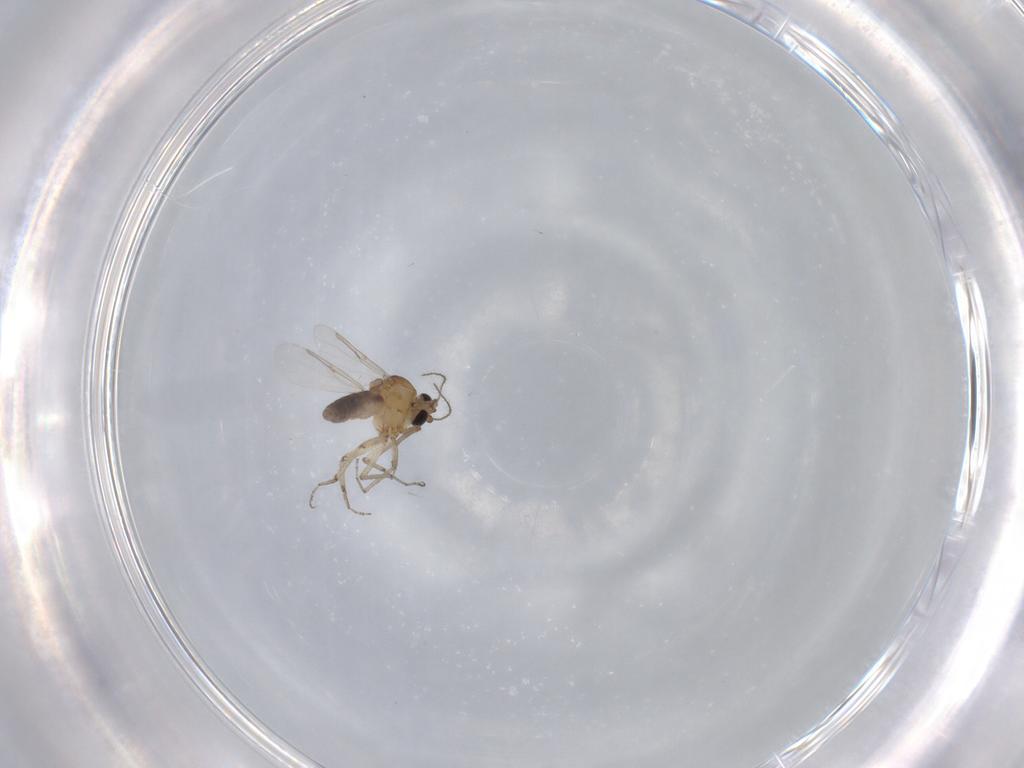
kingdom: Animalia
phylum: Arthropoda
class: Insecta
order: Diptera
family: Ceratopogonidae
